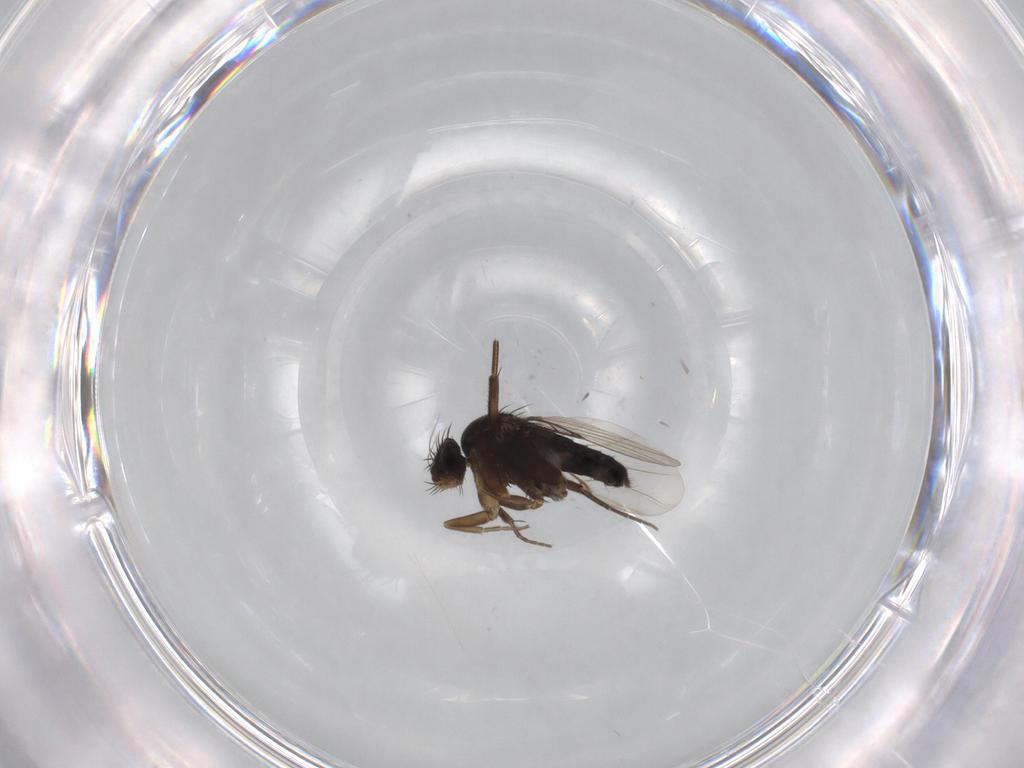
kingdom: Animalia
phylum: Arthropoda
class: Insecta
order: Diptera
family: Phoridae
